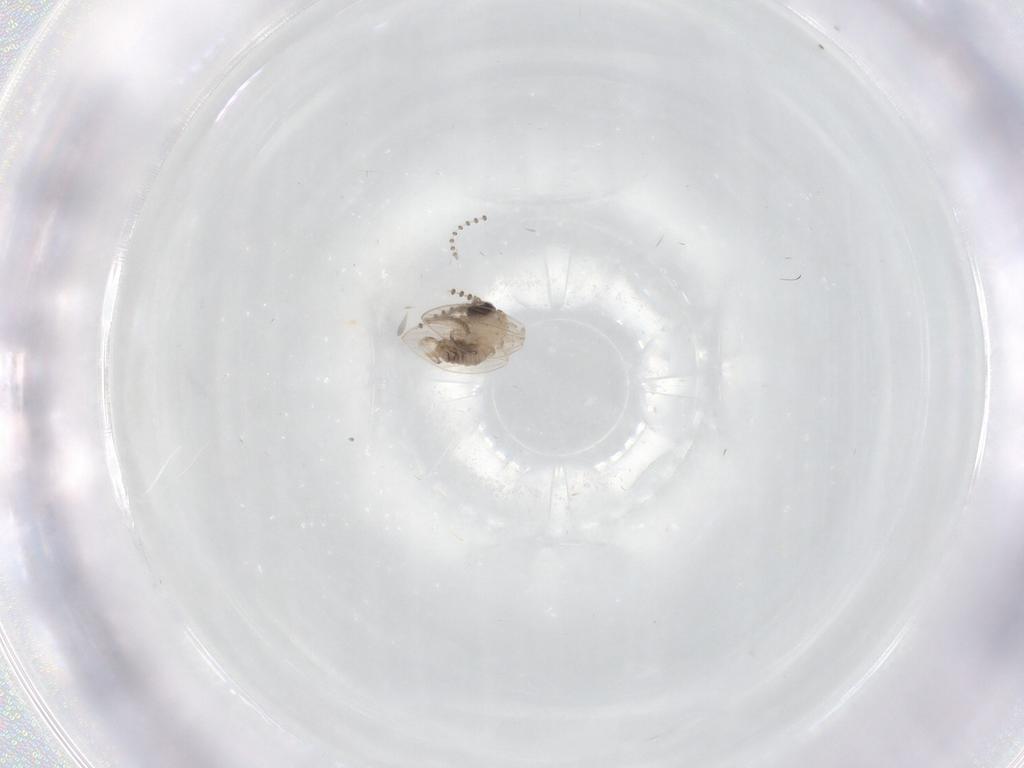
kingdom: Animalia
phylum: Arthropoda
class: Insecta
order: Diptera
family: Ceratopogonidae
